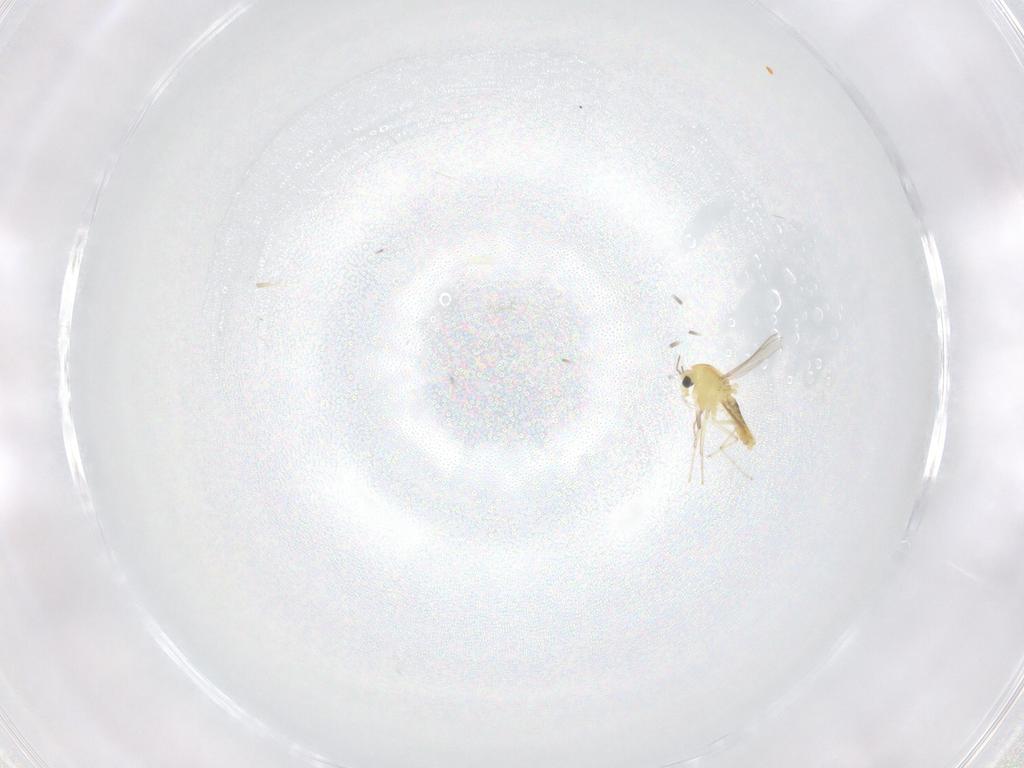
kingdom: Animalia
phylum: Arthropoda
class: Insecta
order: Diptera
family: Chironomidae
